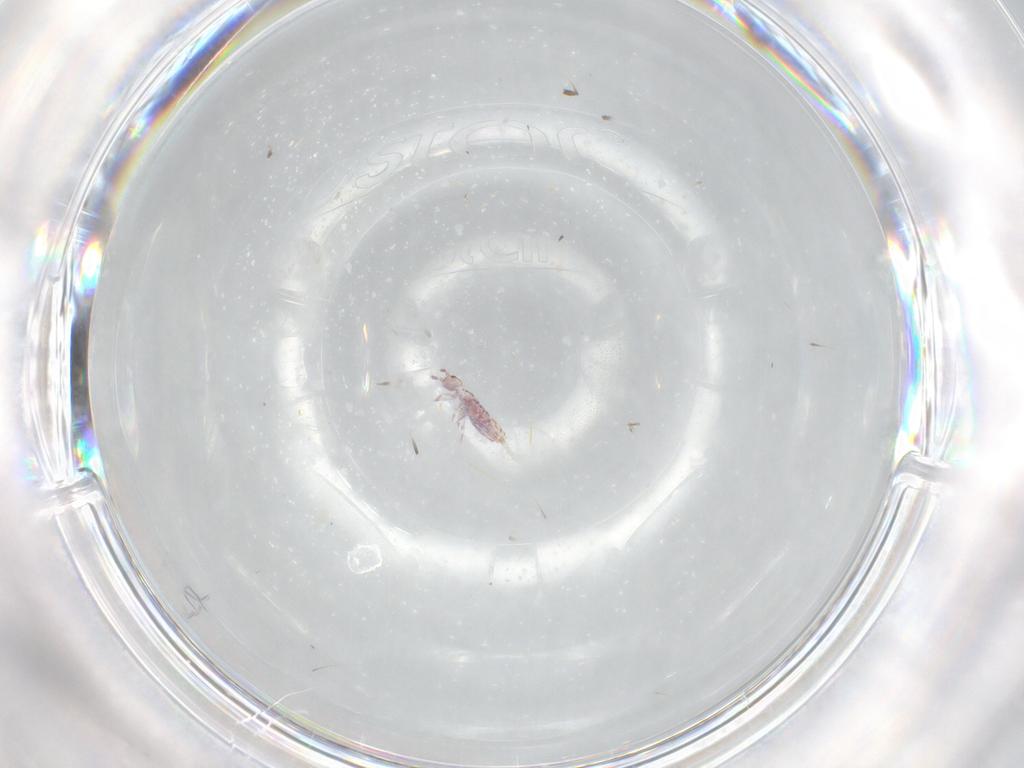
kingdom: Animalia
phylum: Arthropoda
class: Collembola
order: Entomobryomorpha
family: Entomobryidae
